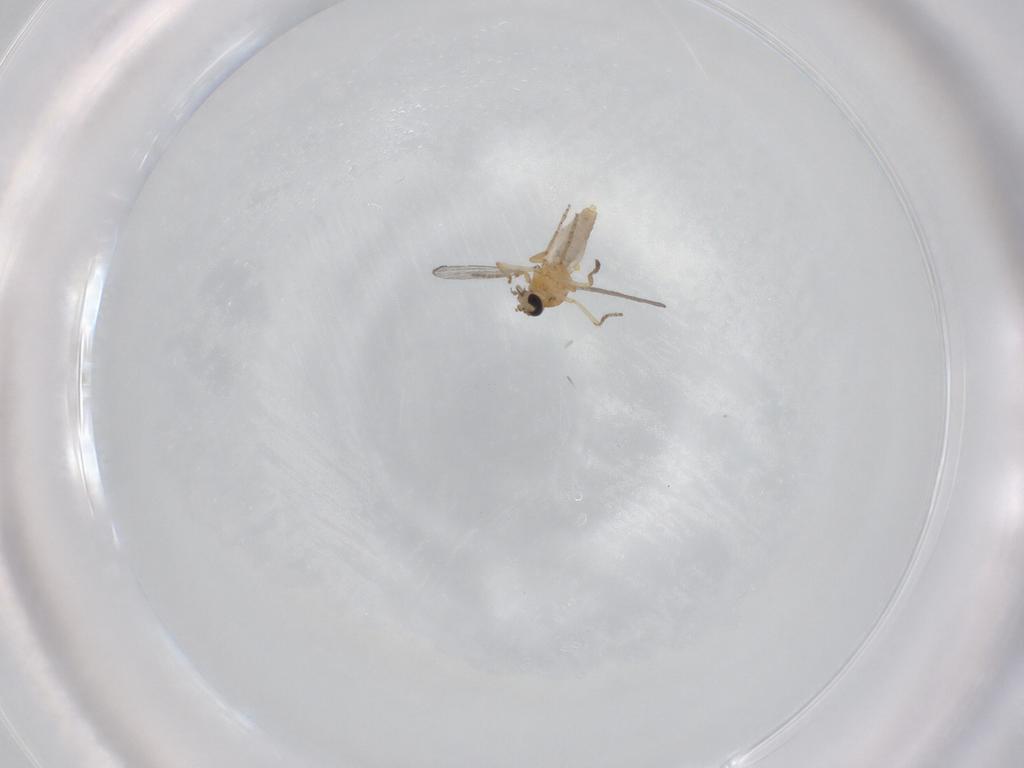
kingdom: Animalia
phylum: Arthropoda
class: Insecta
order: Diptera
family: Ceratopogonidae
